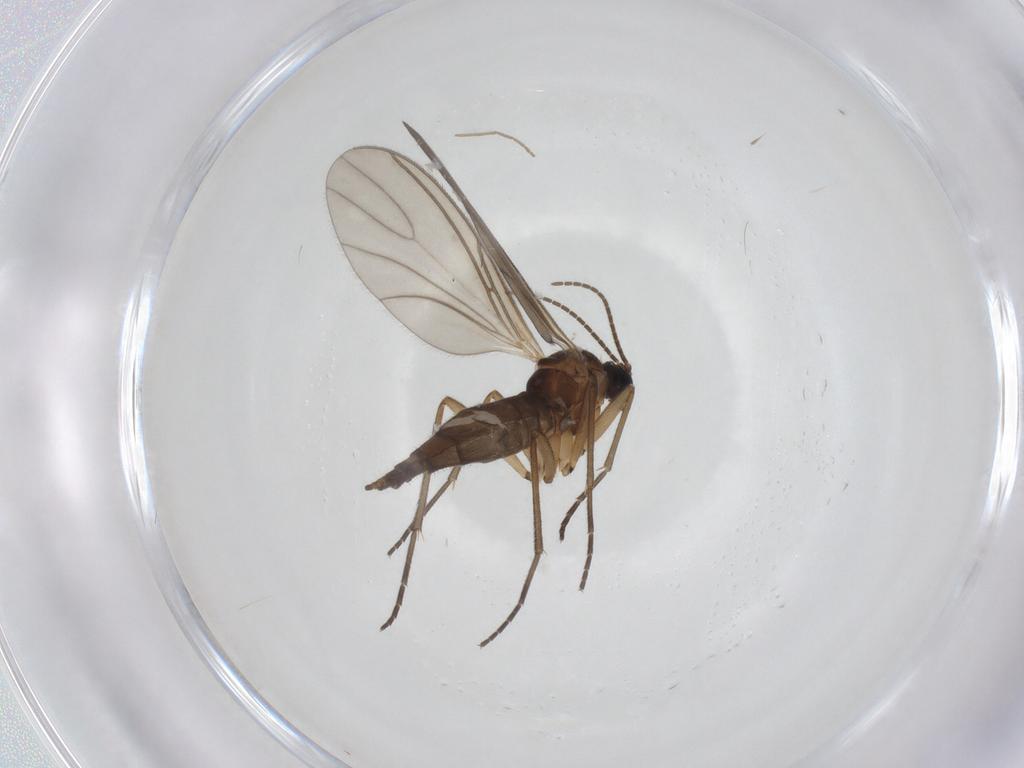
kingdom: Animalia
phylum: Arthropoda
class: Insecta
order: Diptera
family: Sciaridae
